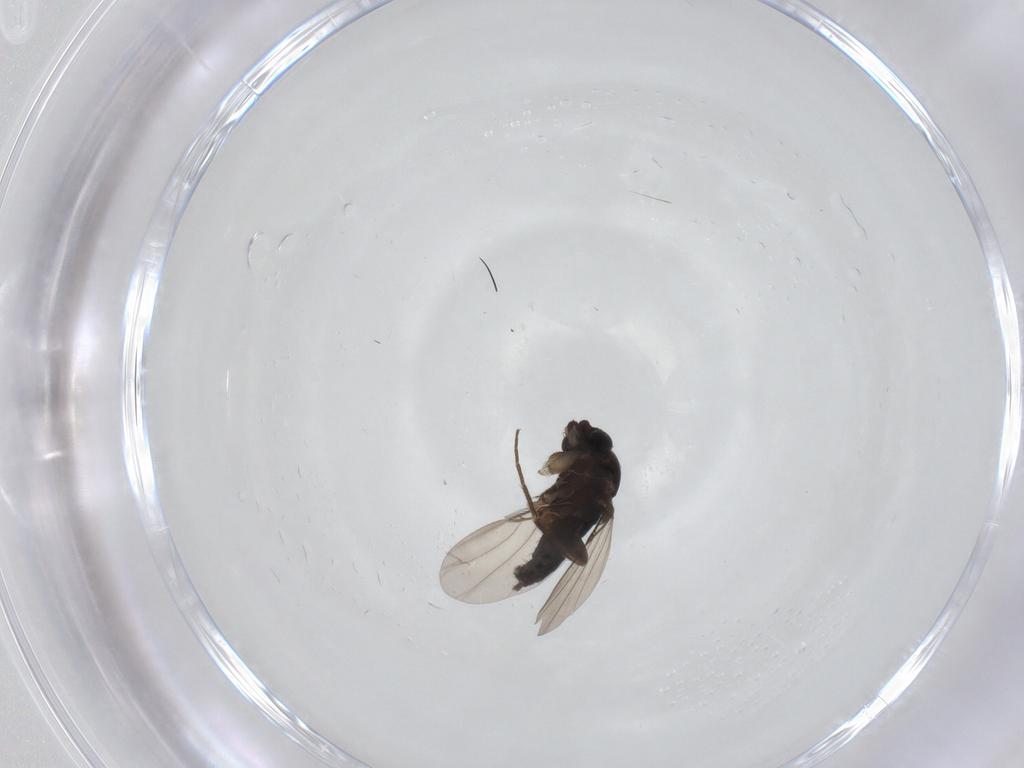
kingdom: Animalia
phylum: Arthropoda
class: Insecta
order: Diptera
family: Phoridae
